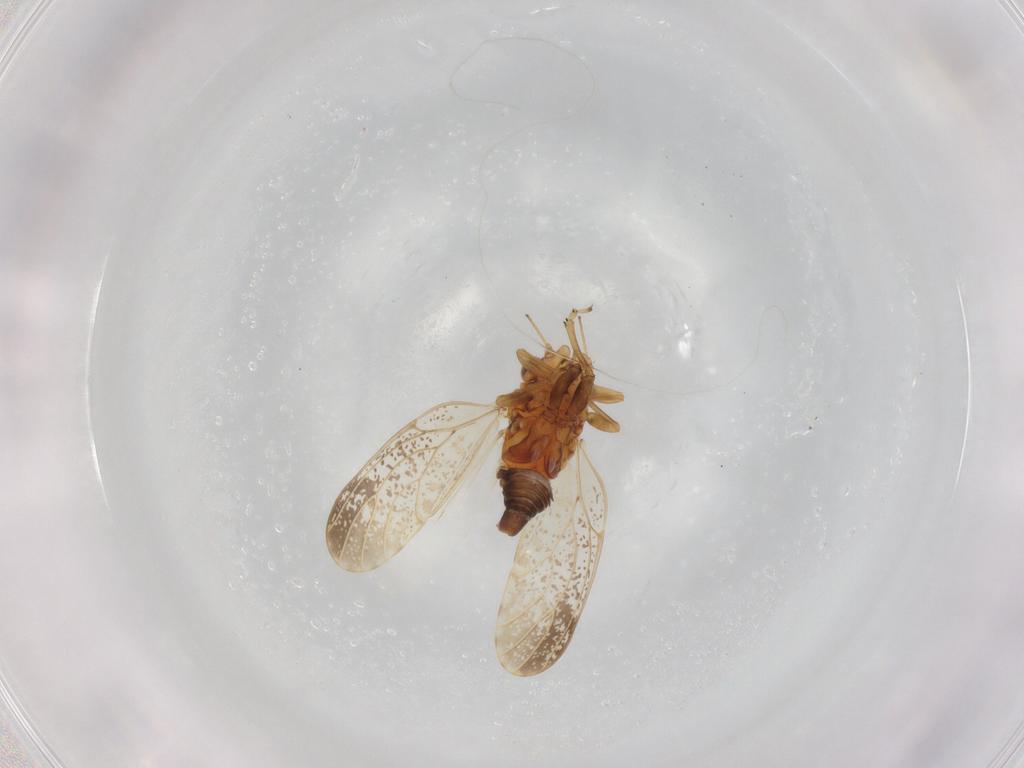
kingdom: Animalia
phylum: Arthropoda
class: Insecta
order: Hemiptera
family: Psyllidae
